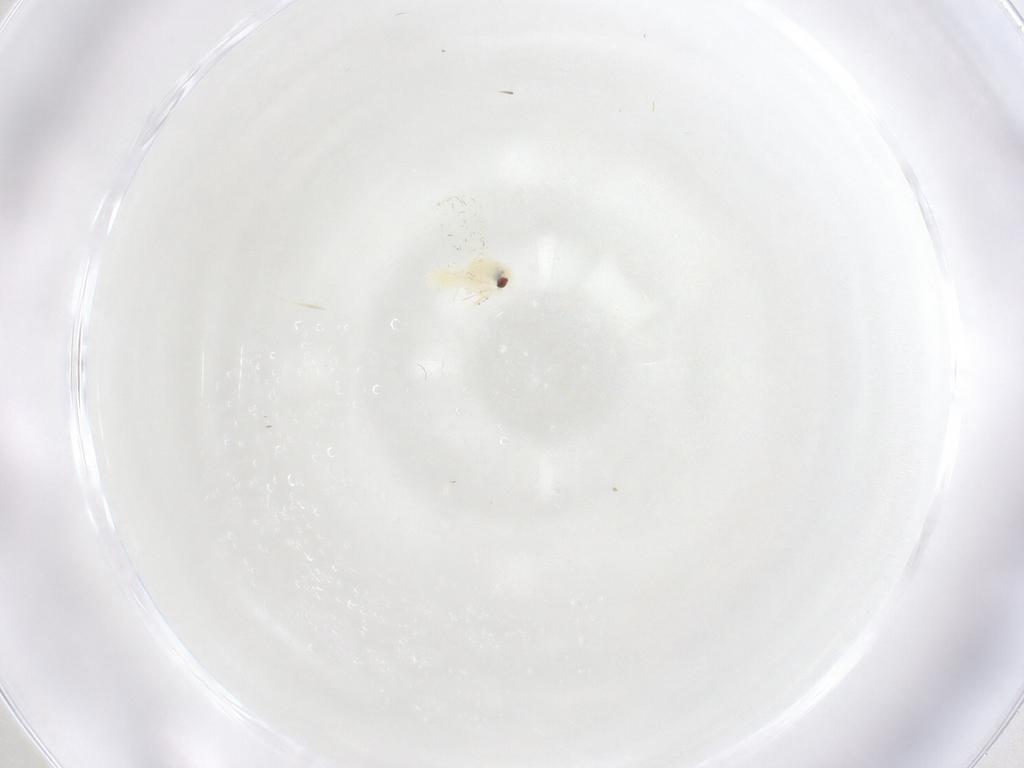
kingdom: Animalia
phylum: Arthropoda
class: Insecta
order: Hemiptera
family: Aleyrodidae
